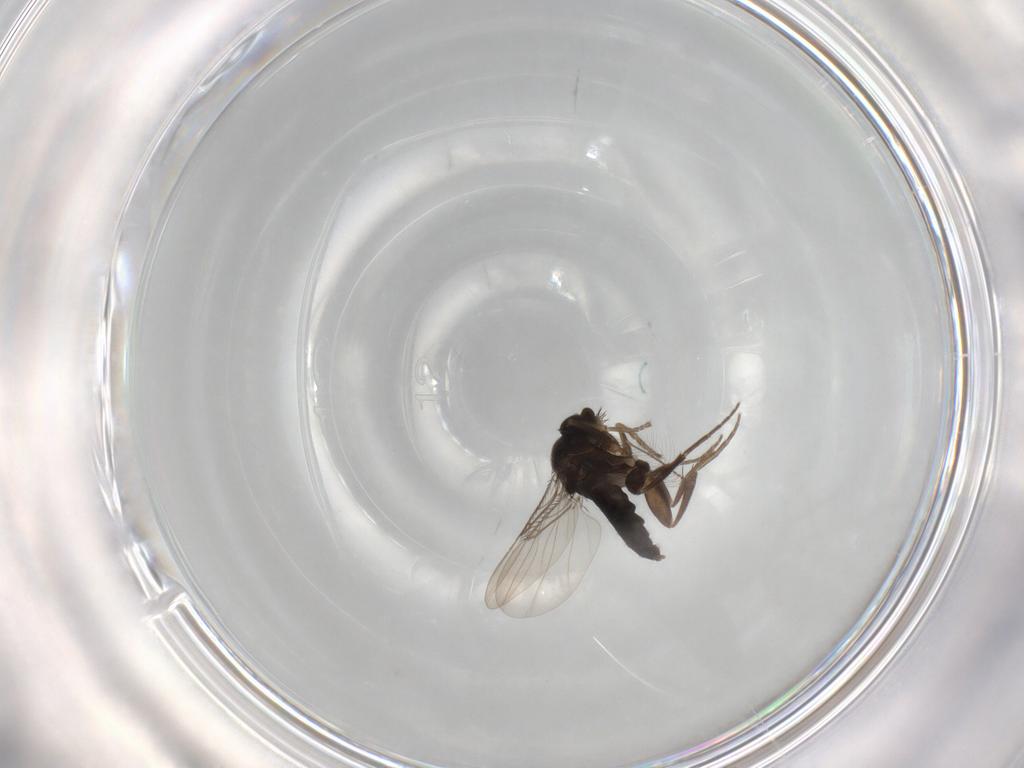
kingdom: Animalia
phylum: Arthropoda
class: Insecta
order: Diptera
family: Phoridae
